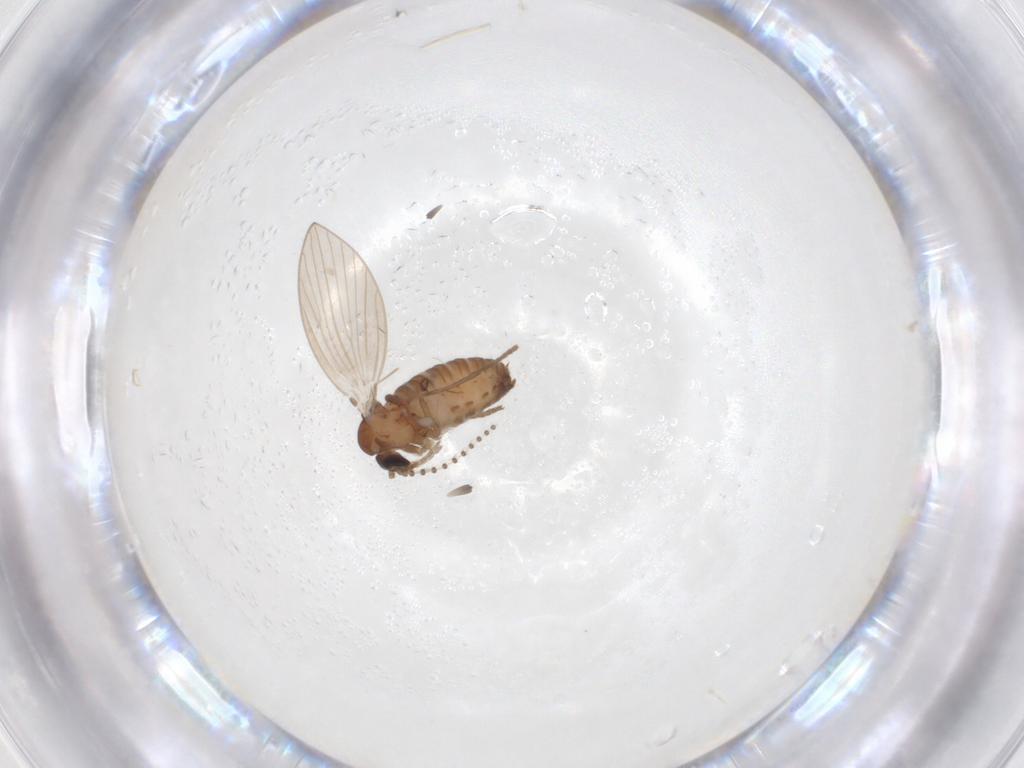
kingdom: Animalia
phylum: Arthropoda
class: Insecta
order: Diptera
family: Psychodidae
